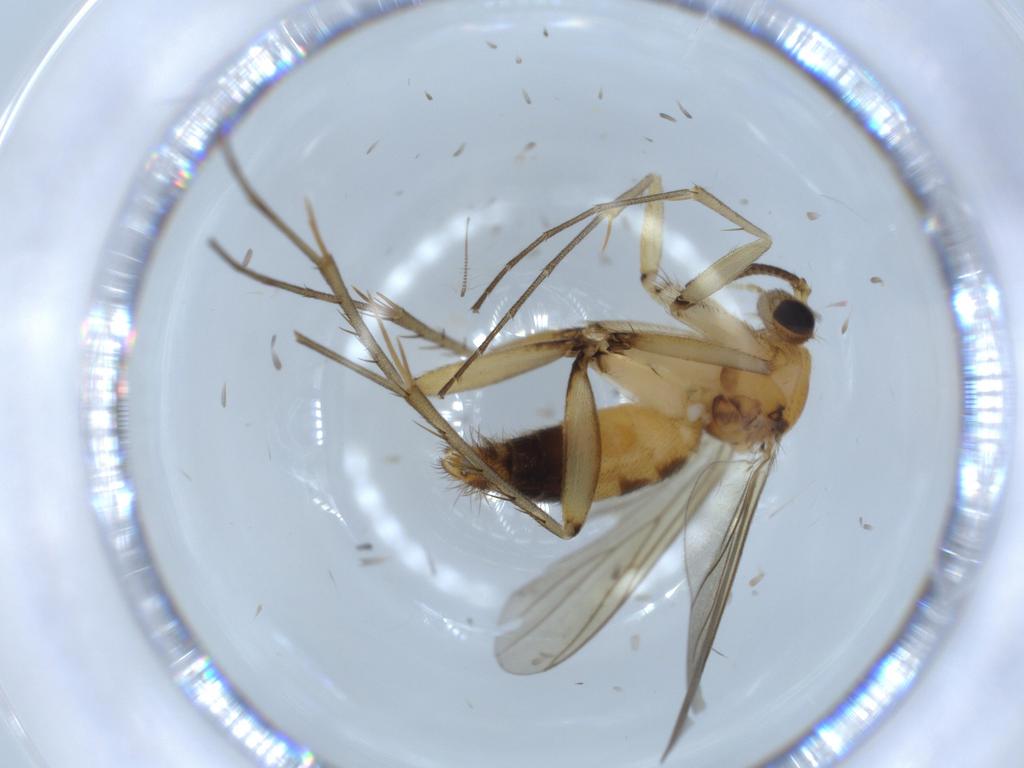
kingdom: Animalia
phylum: Arthropoda
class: Insecta
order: Diptera
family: Mycetophilidae
